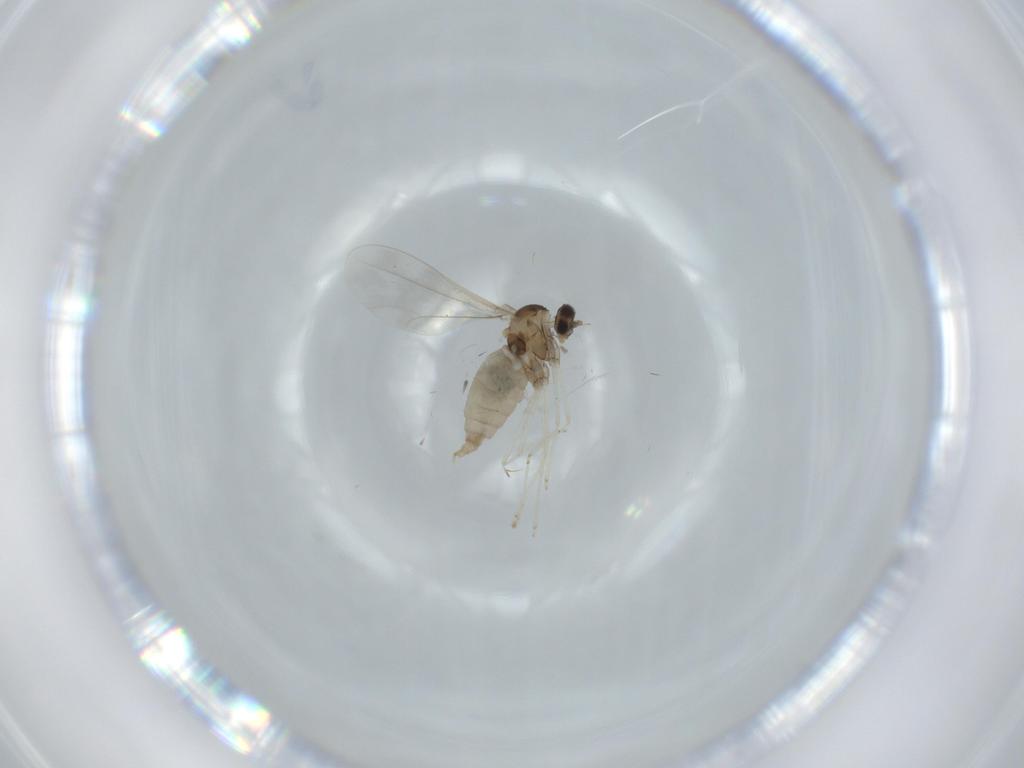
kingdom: Animalia
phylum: Arthropoda
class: Insecta
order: Diptera
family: Cecidomyiidae
